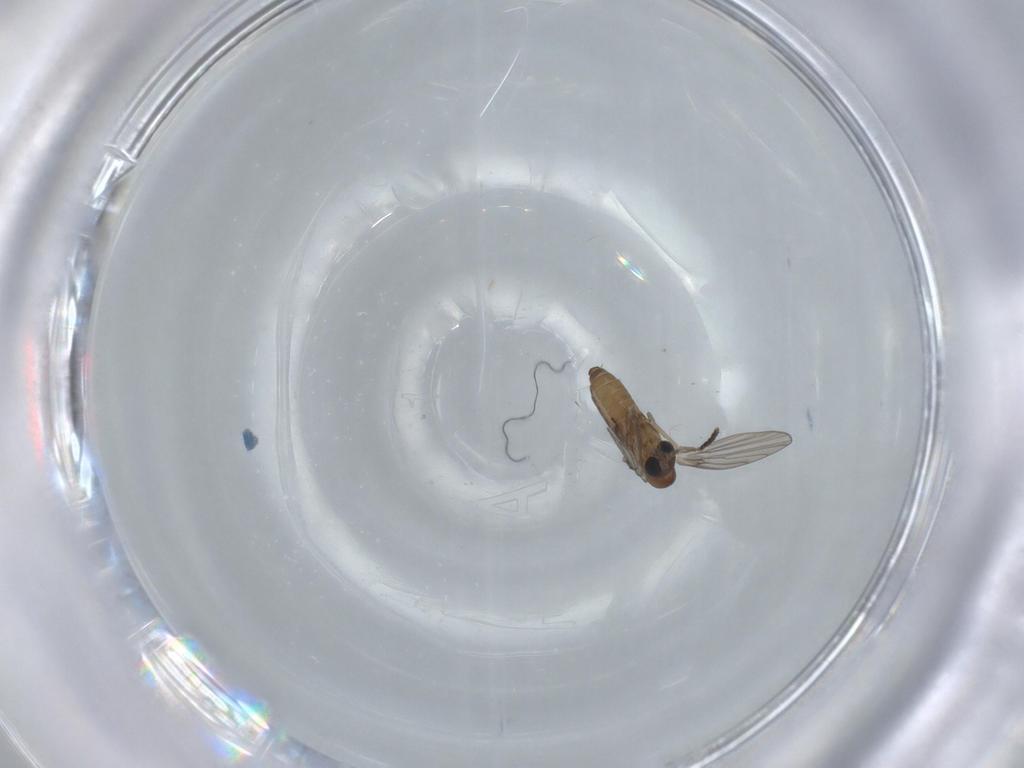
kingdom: Animalia
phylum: Arthropoda
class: Insecta
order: Diptera
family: Psychodidae
